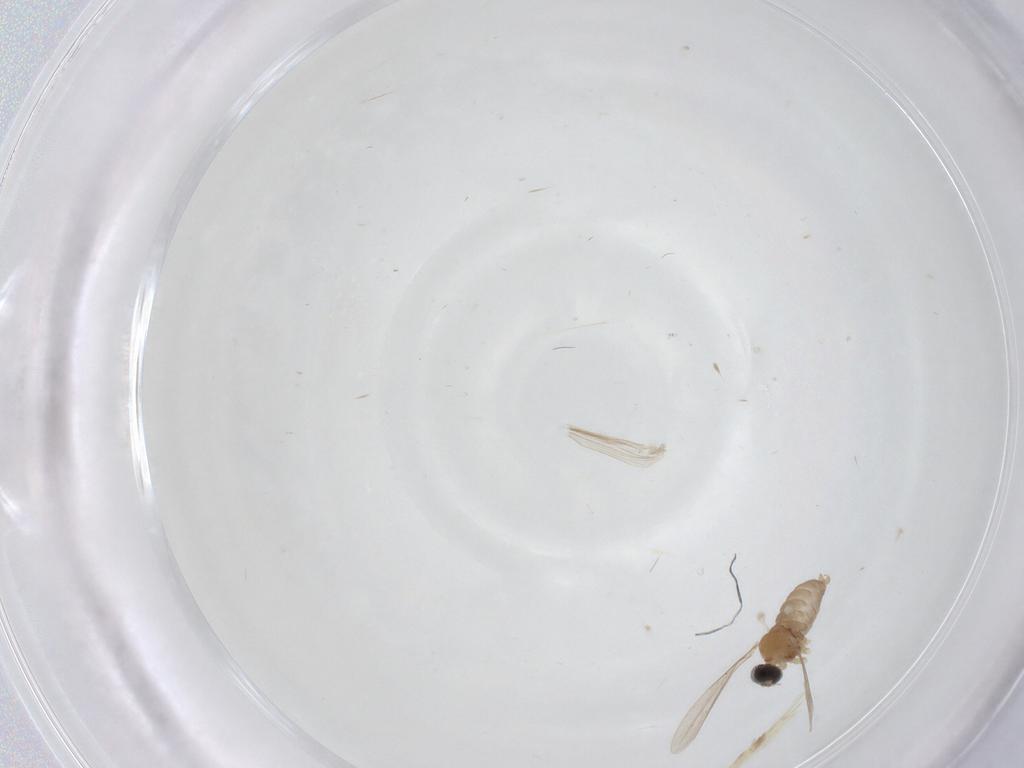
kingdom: Animalia
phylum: Arthropoda
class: Insecta
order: Diptera
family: Cecidomyiidae
